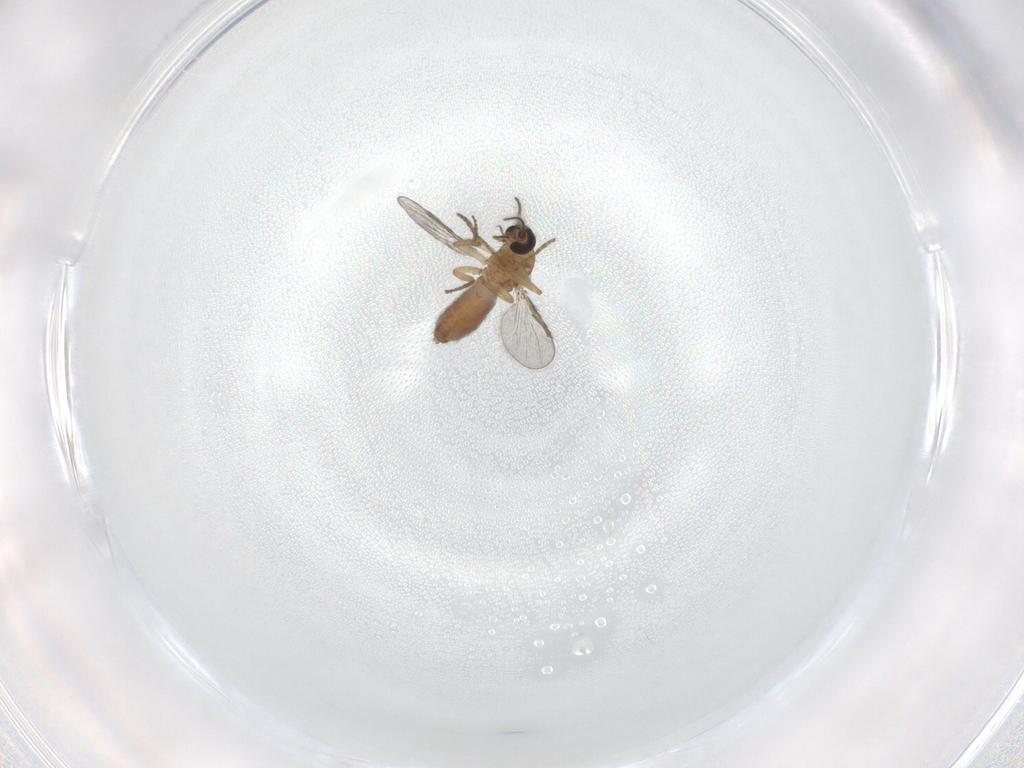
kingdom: Animalia
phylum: Arthropoda
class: Insecta
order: Diptera
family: Ceratopogonidae
